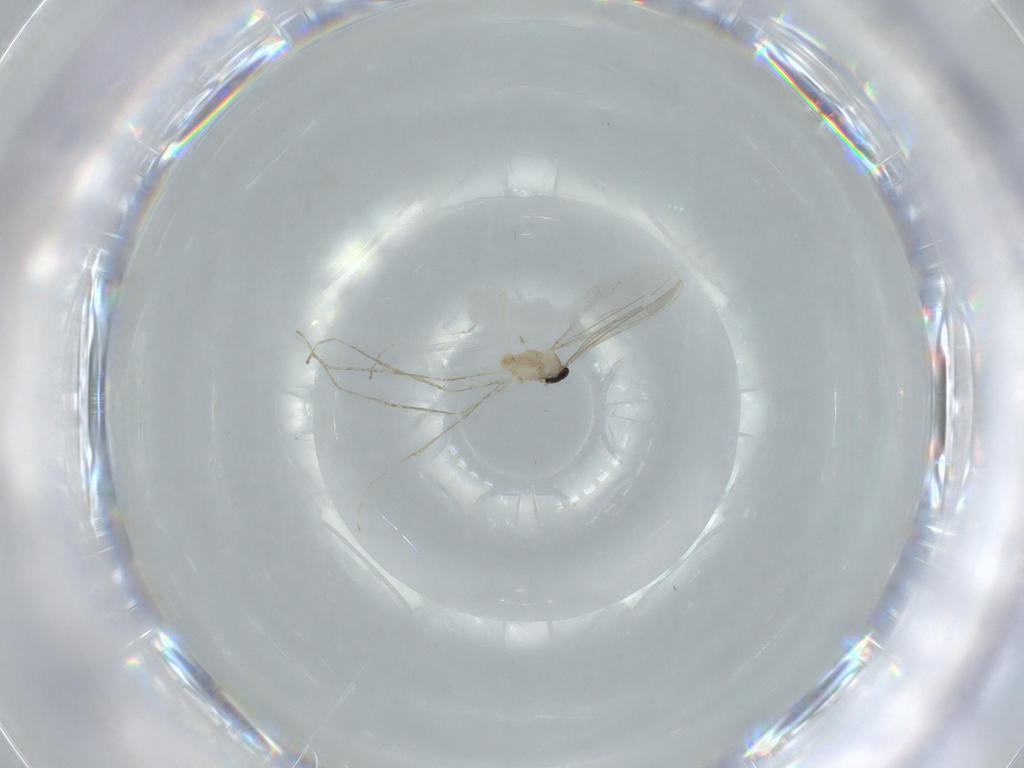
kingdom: Animalia
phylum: Arthropoda
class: Insecta
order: Diptera
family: Cecidomyiidae
